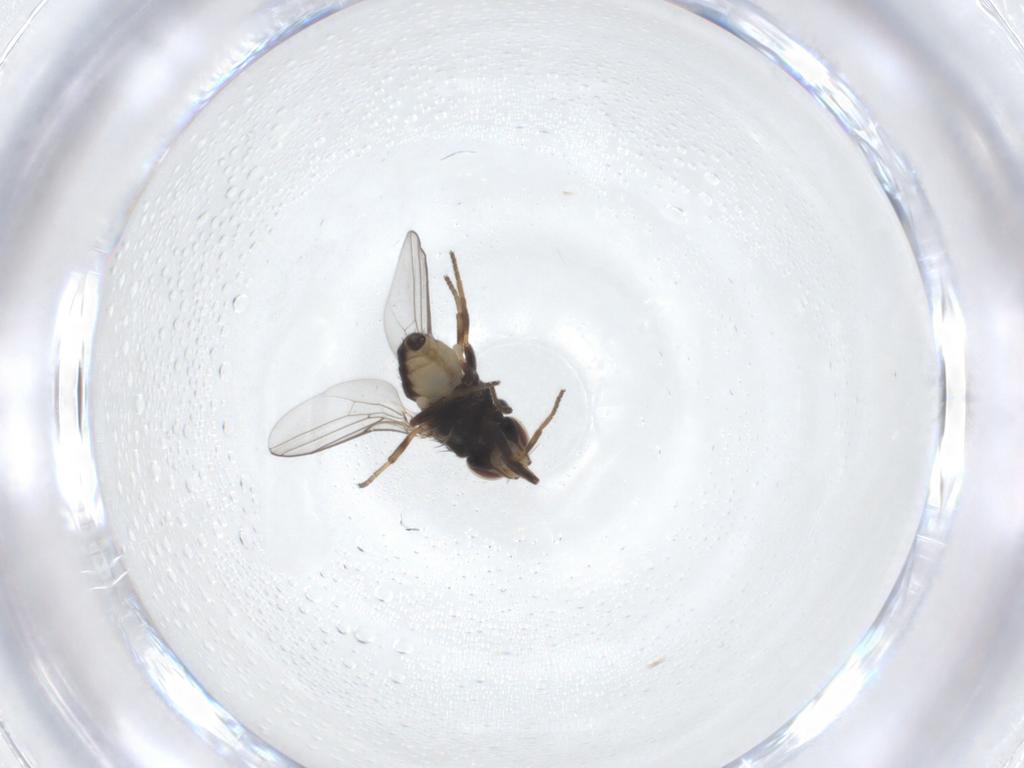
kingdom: Animalia
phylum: Arthropoda
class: Insecta
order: Diptera
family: Chloropidae
